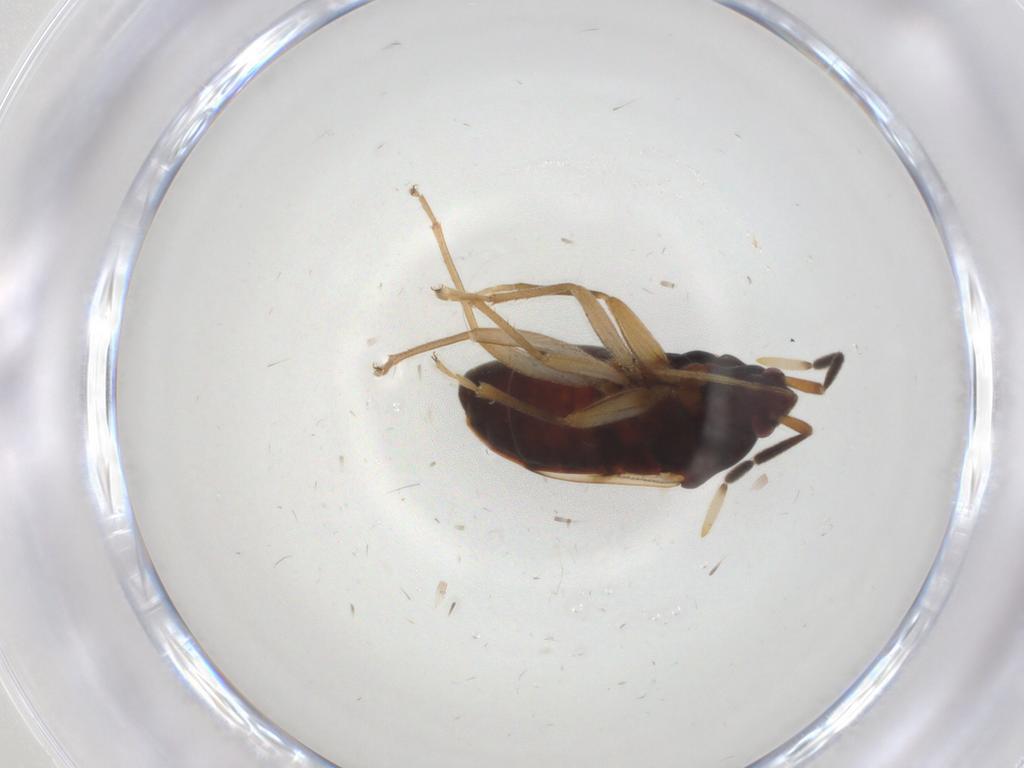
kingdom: Animalia
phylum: Arthropoda
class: Insecta
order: Hemiptera
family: Rhyparochromidae
